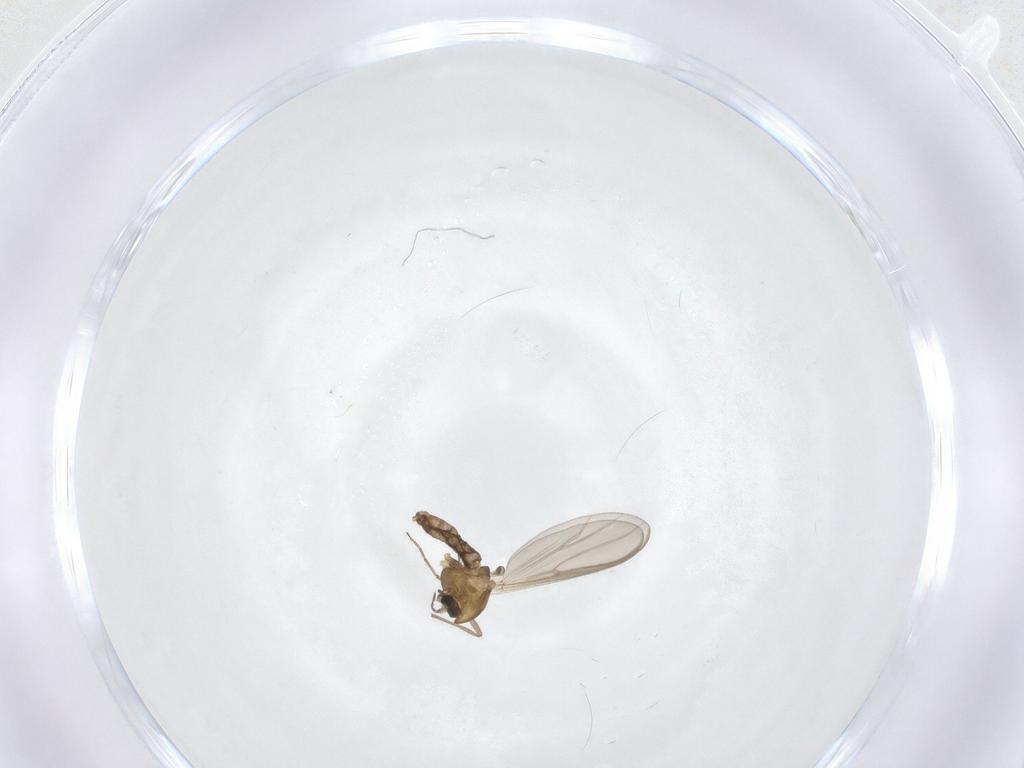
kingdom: Animalia
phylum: Arthropoda
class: Insecta
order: Diptera
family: Chironomidae
